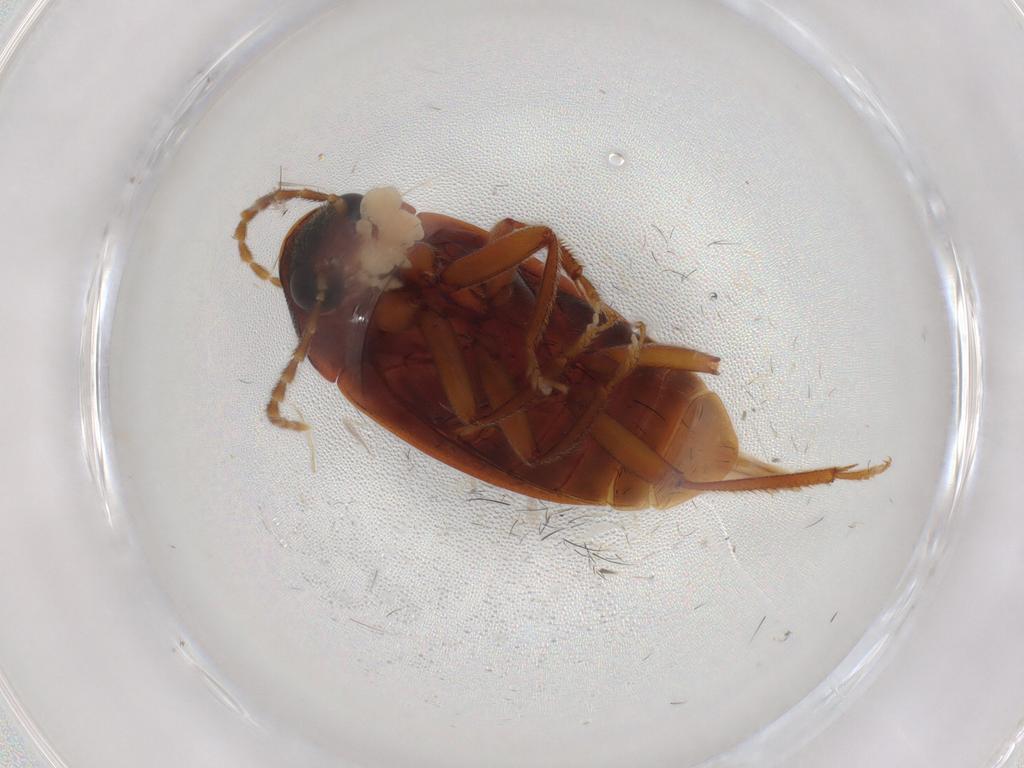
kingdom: Animalia
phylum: Arthropoda
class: Insecta
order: Coleoptera
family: Ptilodactylidae
